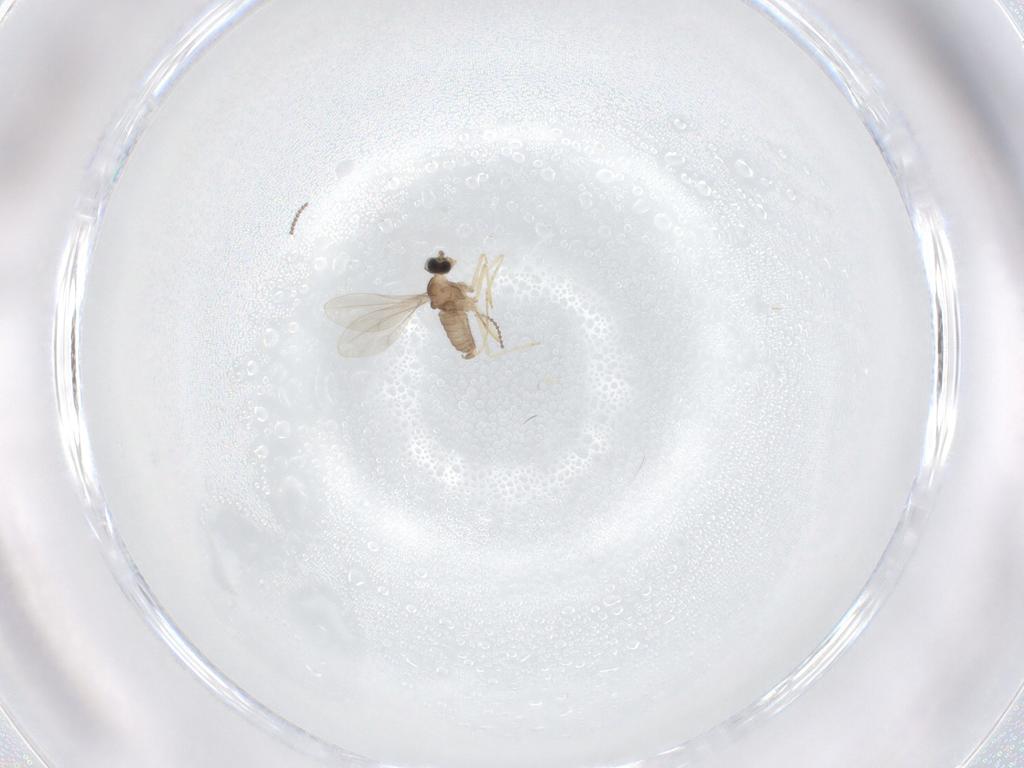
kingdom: Animalia
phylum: Arthropoda
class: Insecta
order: Diptera
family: Cecidomyiidae
